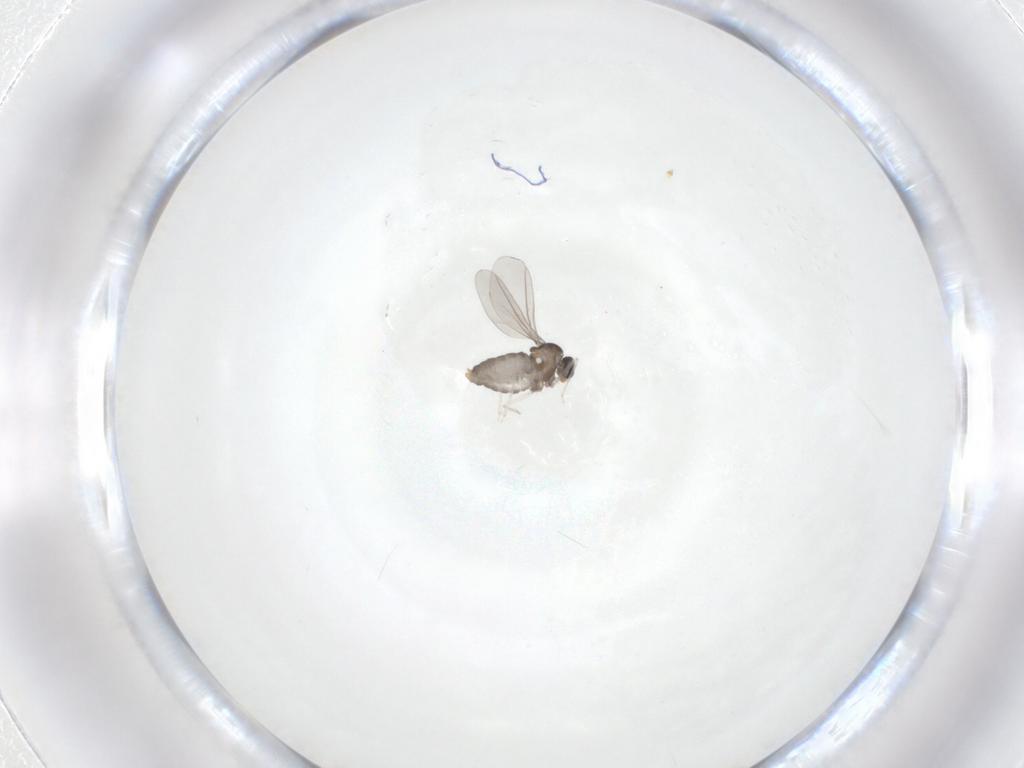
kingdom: Animalia
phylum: Arthropoda
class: Insecta
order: Diptera
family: Cecidomyiidae
